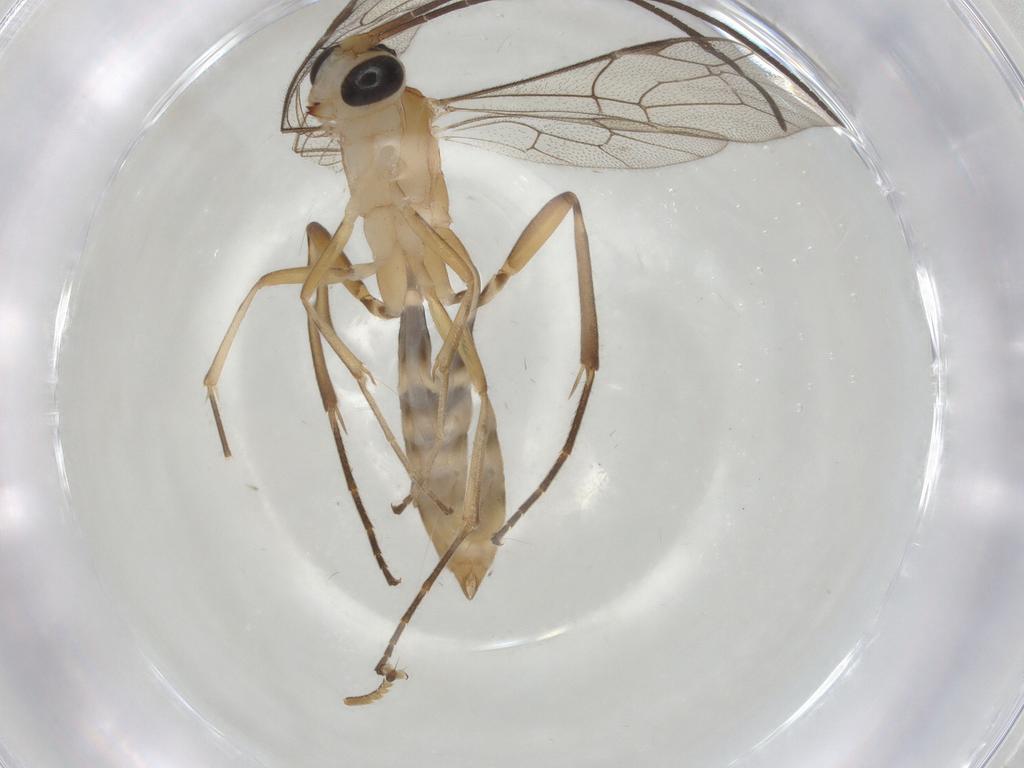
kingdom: Animalia
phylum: Arthropoda
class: Insecta
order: Hymenoptera
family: Ichneumonidae
